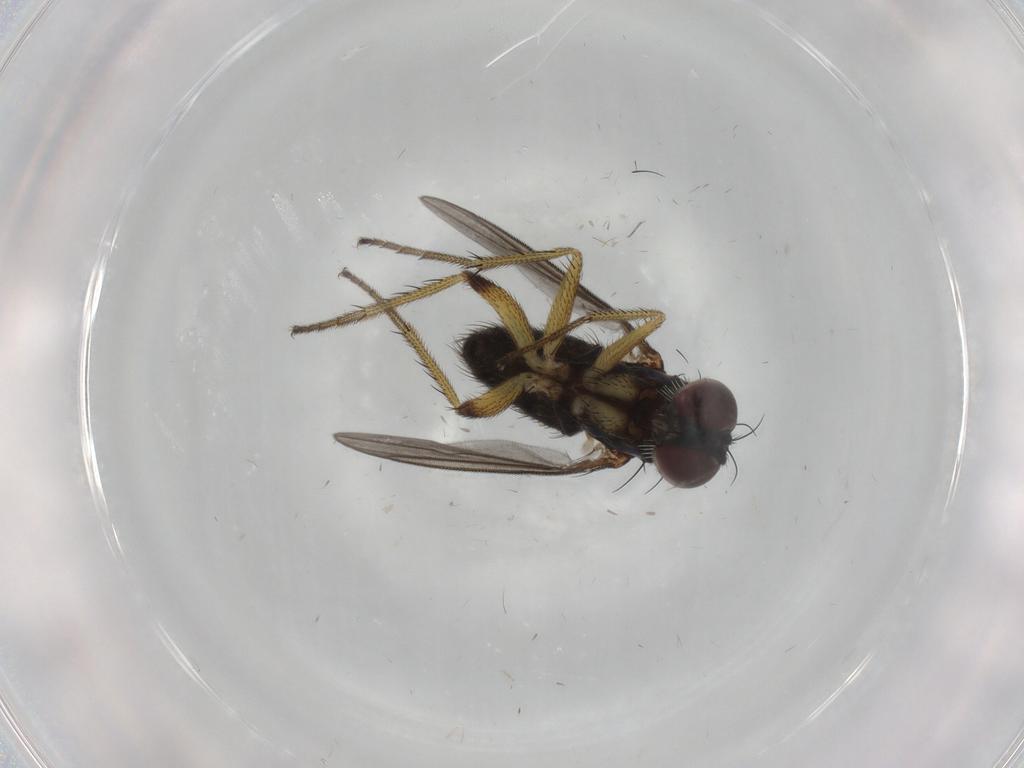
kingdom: Animalia
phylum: Arthropoda
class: Insecta
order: Diptera
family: Dolichopodidae
